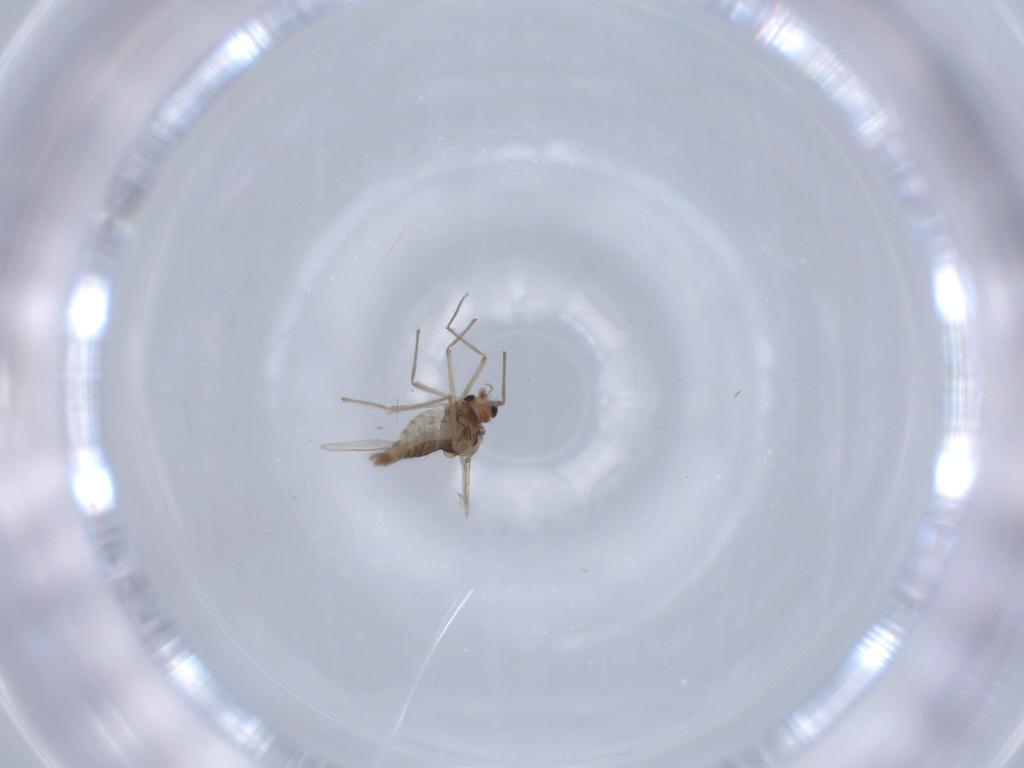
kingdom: Animalia
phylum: Arthropoda
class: Insecta
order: Diptera
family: Chironomidae
